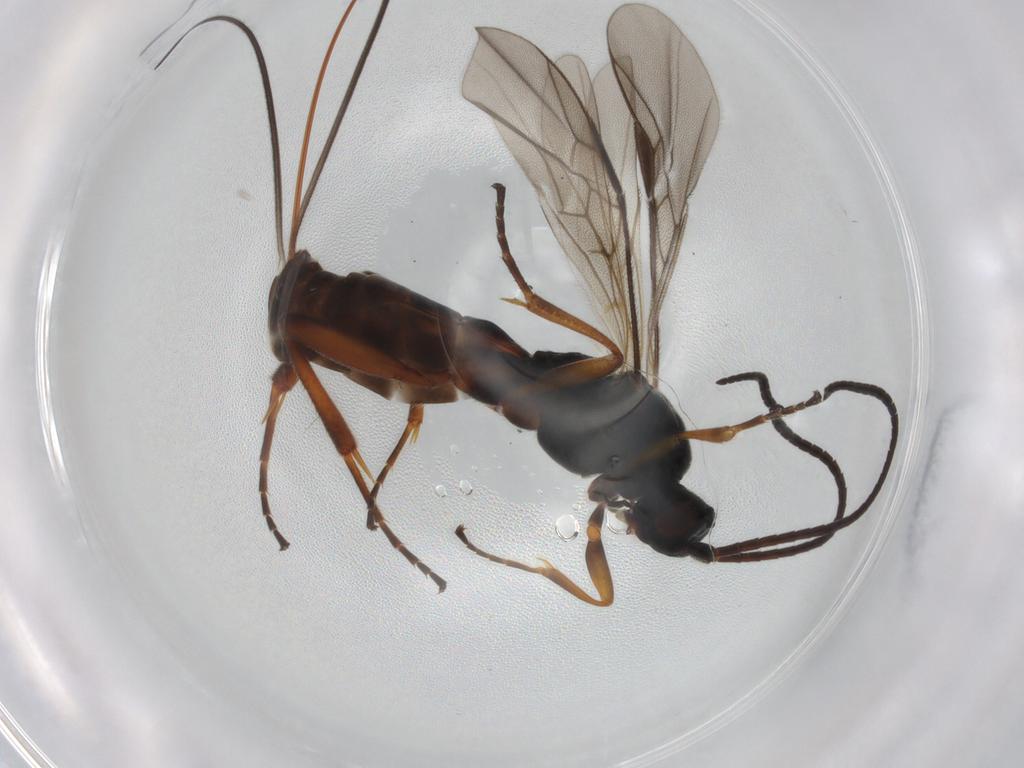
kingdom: Animalia
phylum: Arthropoda
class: Insecta
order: Hymenoptera
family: Braconidae
